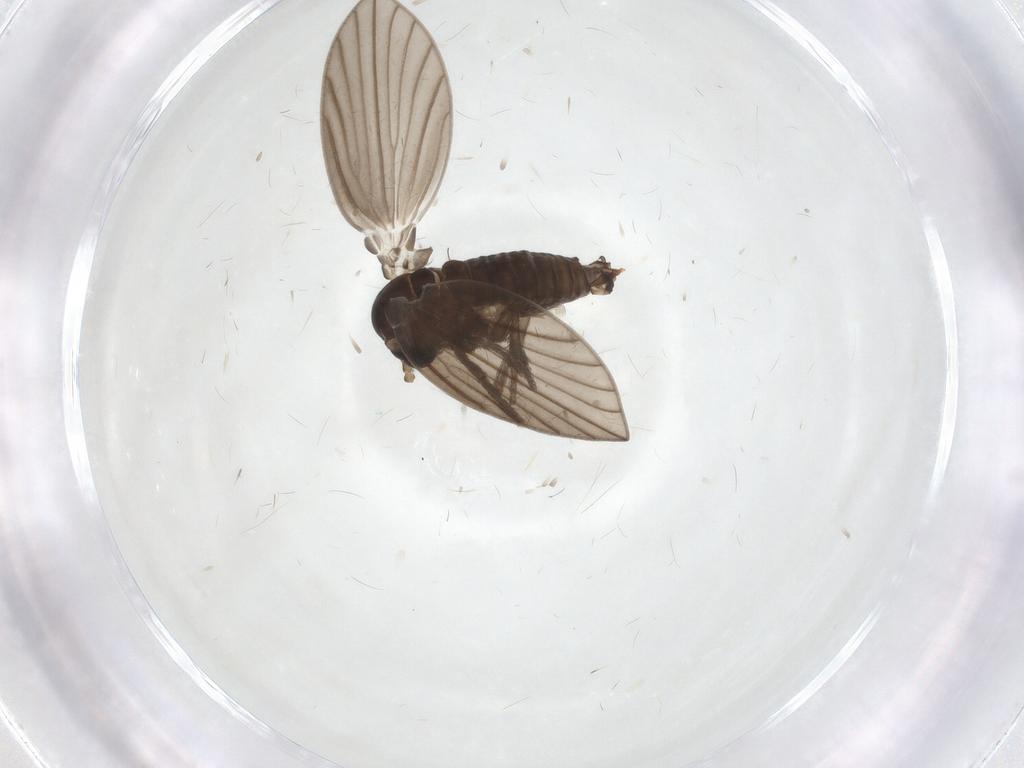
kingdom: Animalia
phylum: Arthropoda
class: Insecta
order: Diptera
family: Psychodidae
